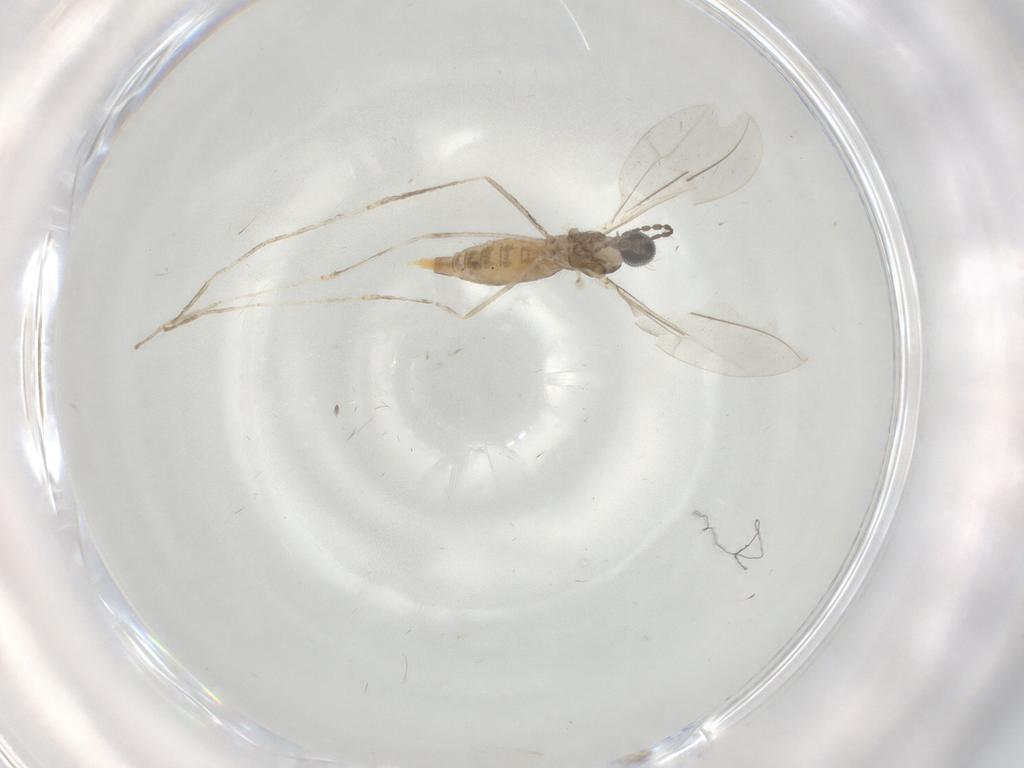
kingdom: Animalia
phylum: Arthropoda
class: Insecta
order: Diptera
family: Cecidomyiidae
